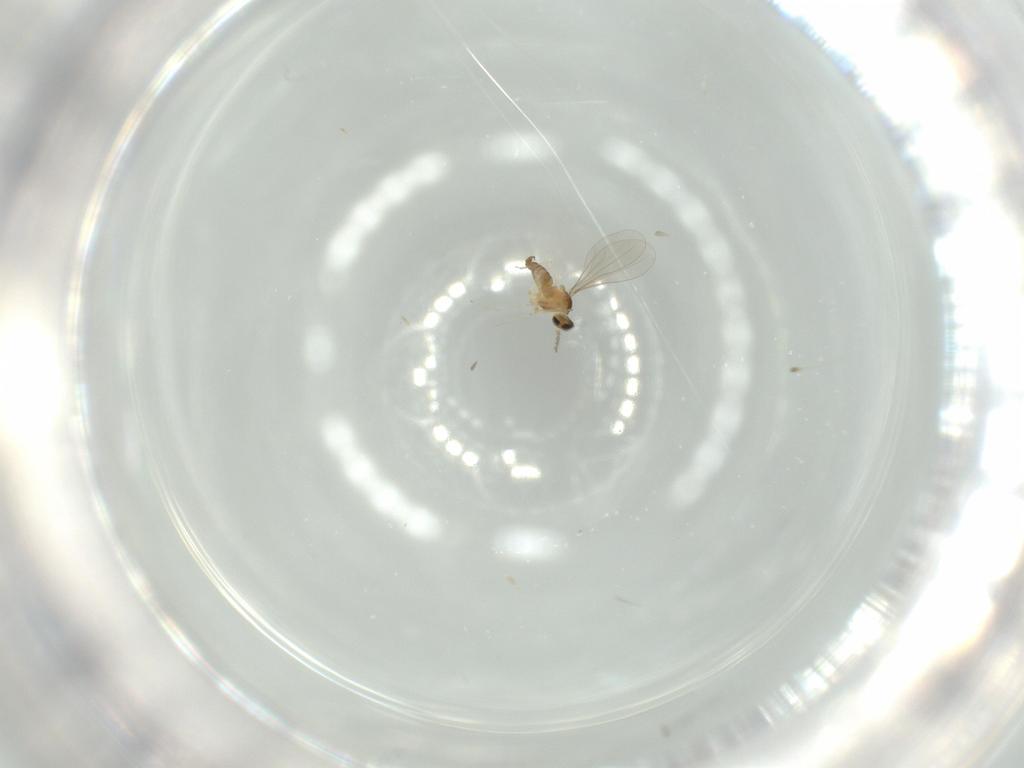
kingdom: Animalia
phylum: Arthropoda
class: Insecta
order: Diptera
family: Cecidomyiidae
